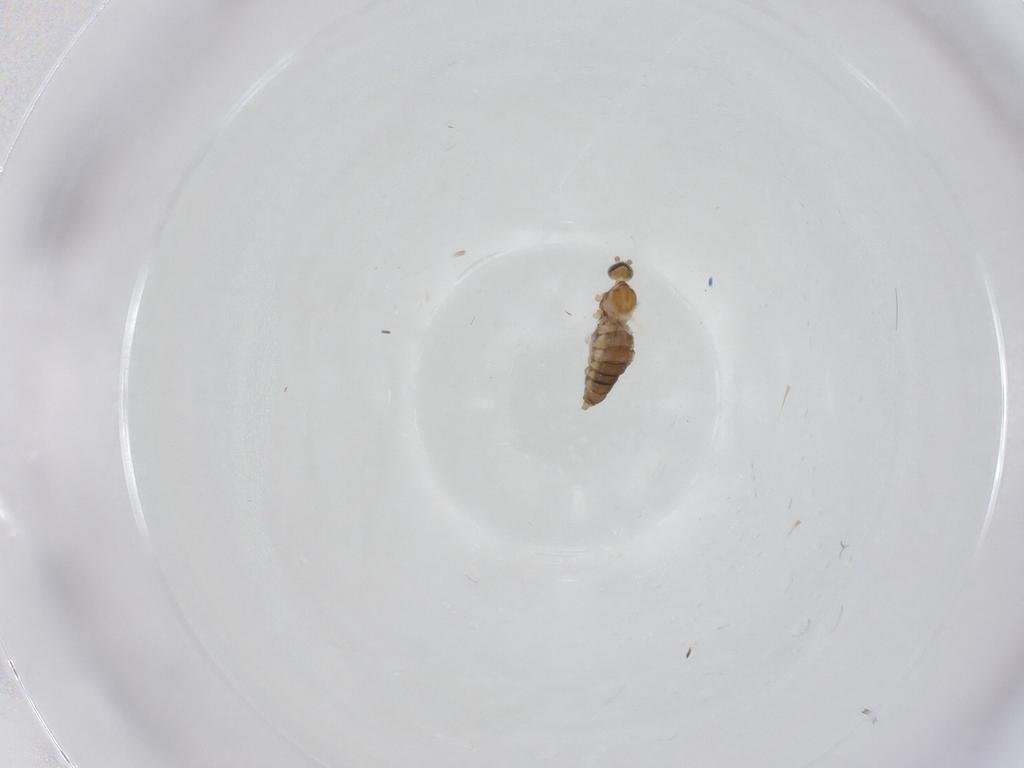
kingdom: Animalia
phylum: Arthropoda
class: Insecta
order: Diptera
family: Cecidomyiidae
